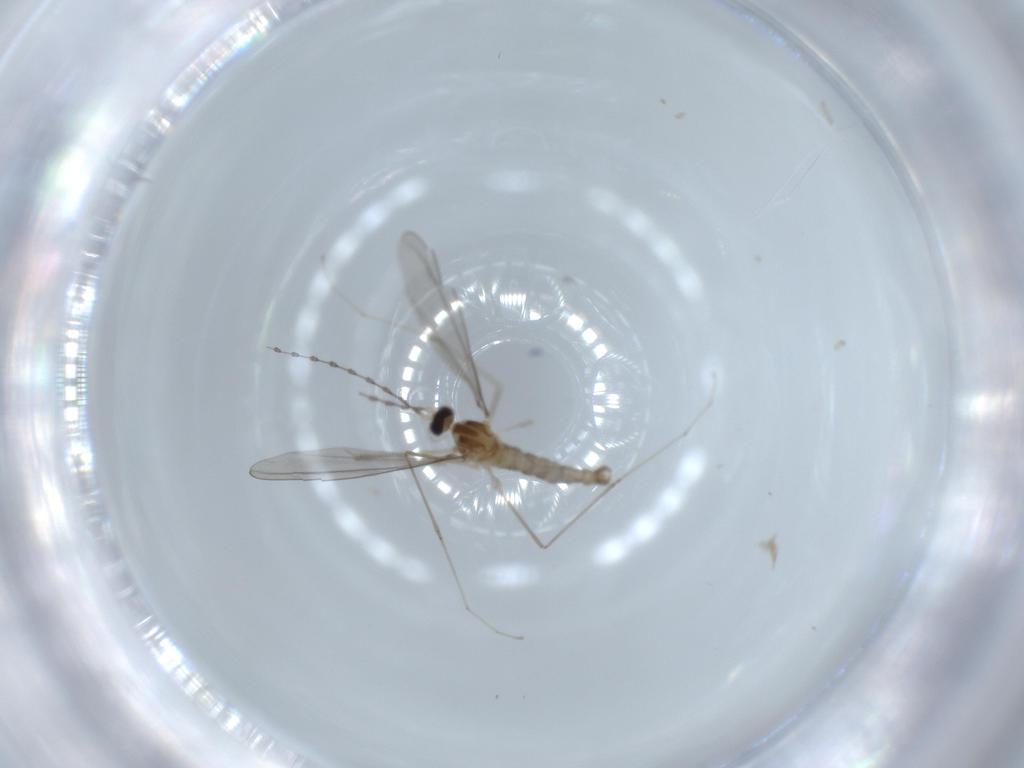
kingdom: Animalia
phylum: Arthropoda
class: Insecta
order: Diptera
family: Cecidomyiidae
